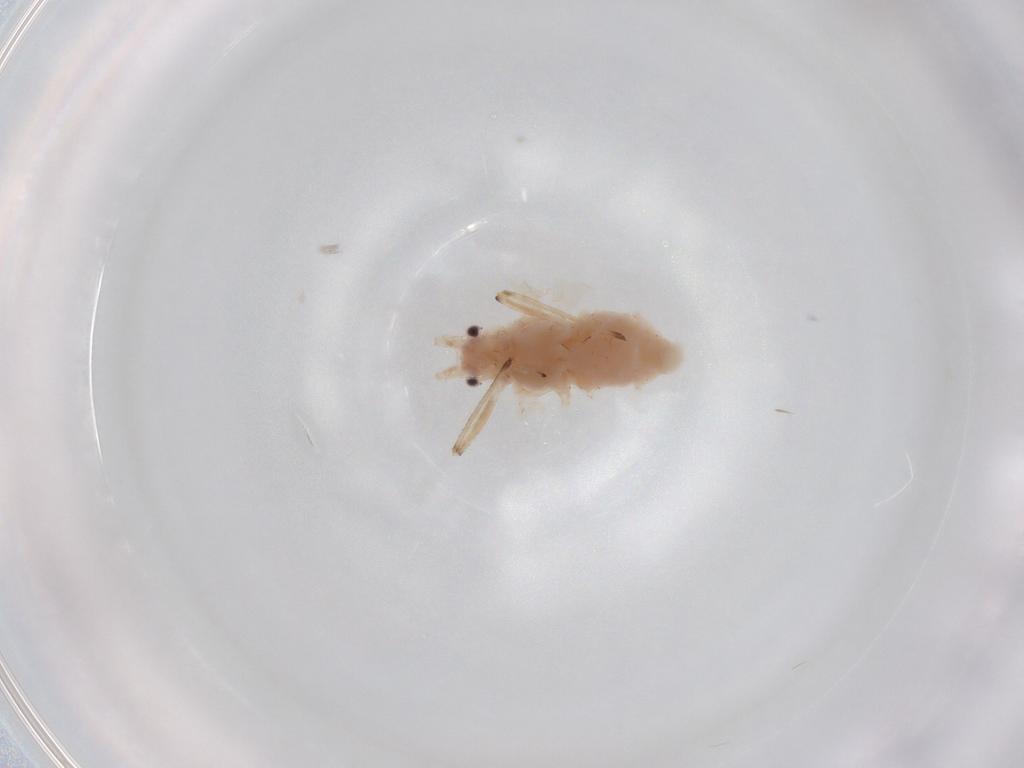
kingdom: Animalia
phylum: Arthropoda
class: Insecta
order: Hemiptera
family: Aphididae
